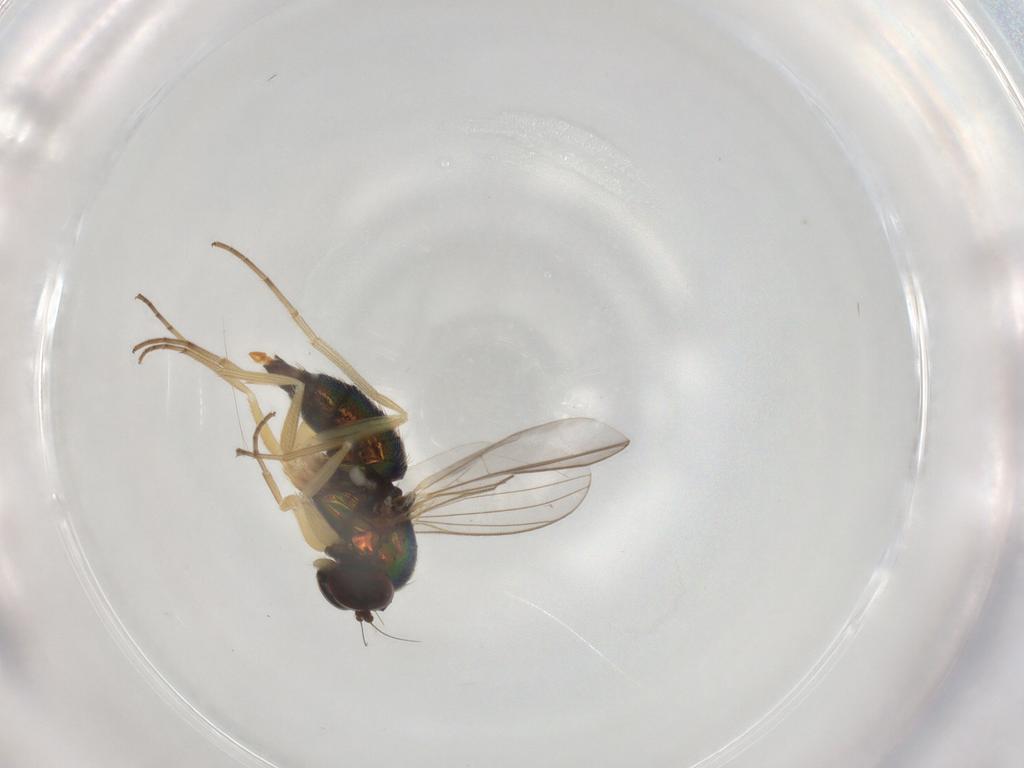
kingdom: Animalia
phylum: Arthropoda
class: Insecta
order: Diptera
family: Dolichopodidae
